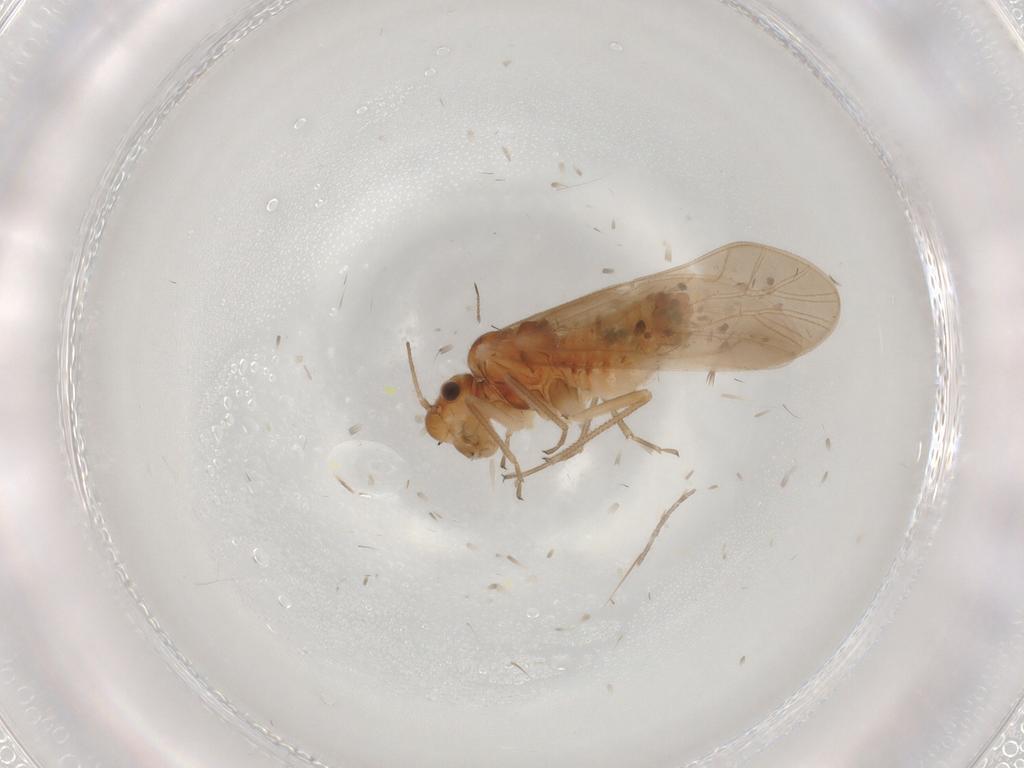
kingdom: Animalia
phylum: Arthropoda
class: Insecta
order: Psocodea
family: Caeciliusidae
